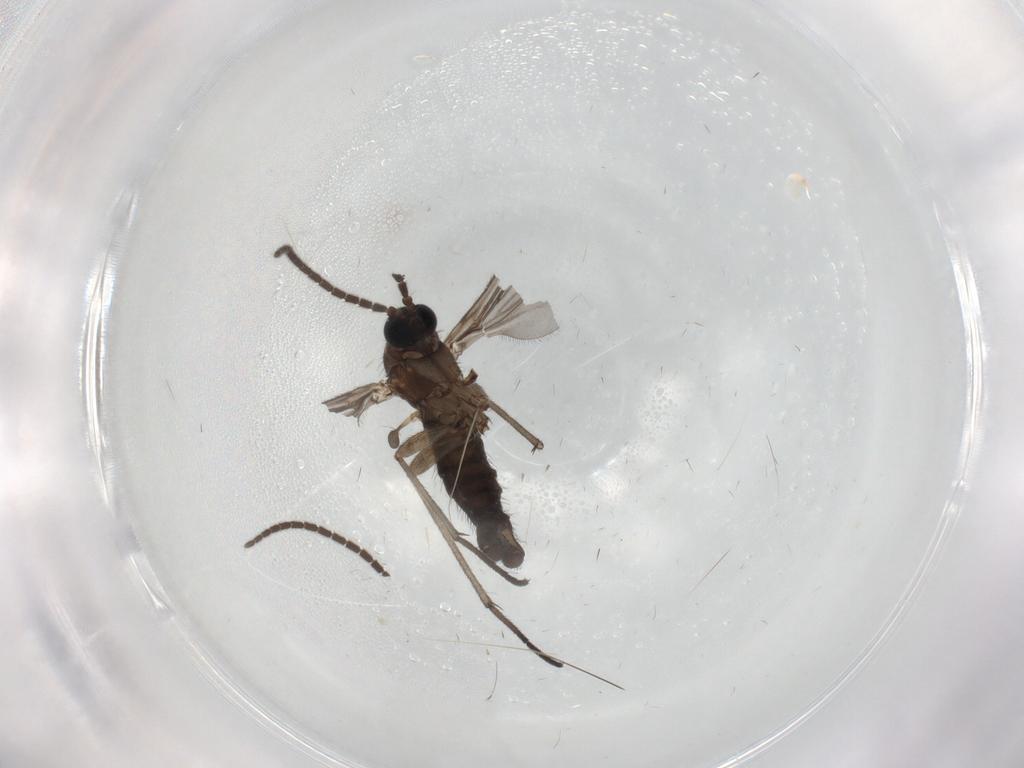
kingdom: Animalia
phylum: Arthropoda
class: Insecta
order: Diptera
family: Sciaridae
